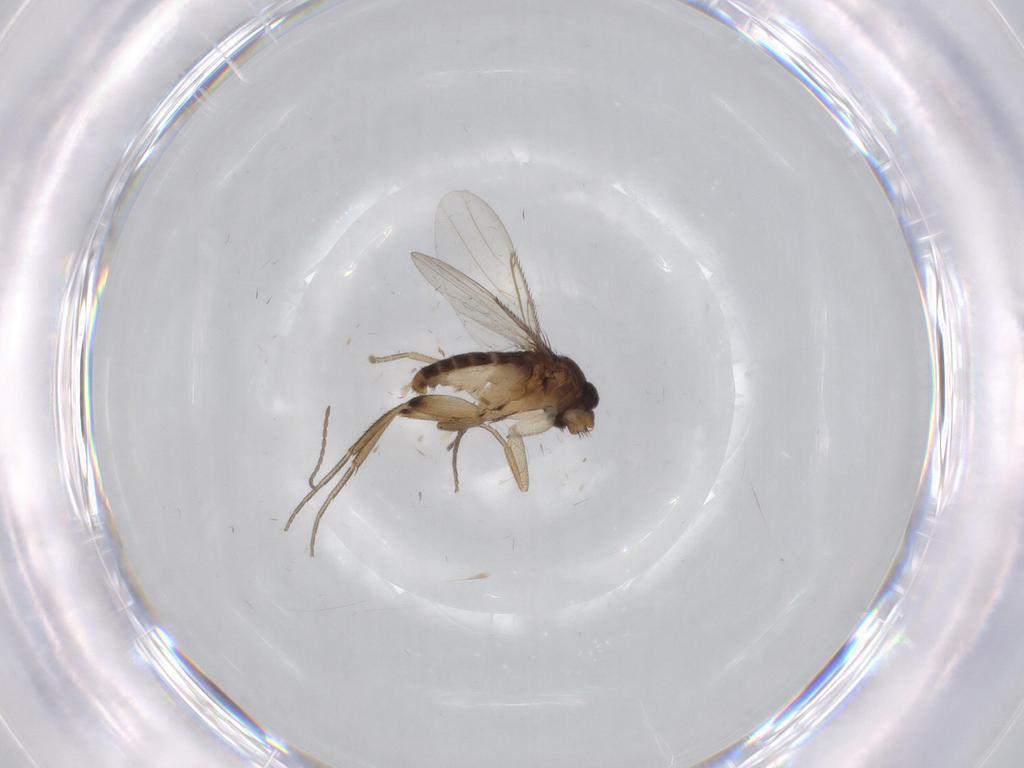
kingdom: Animalia
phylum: Arthropoda
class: Insecta
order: Diptera
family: Phoridae
